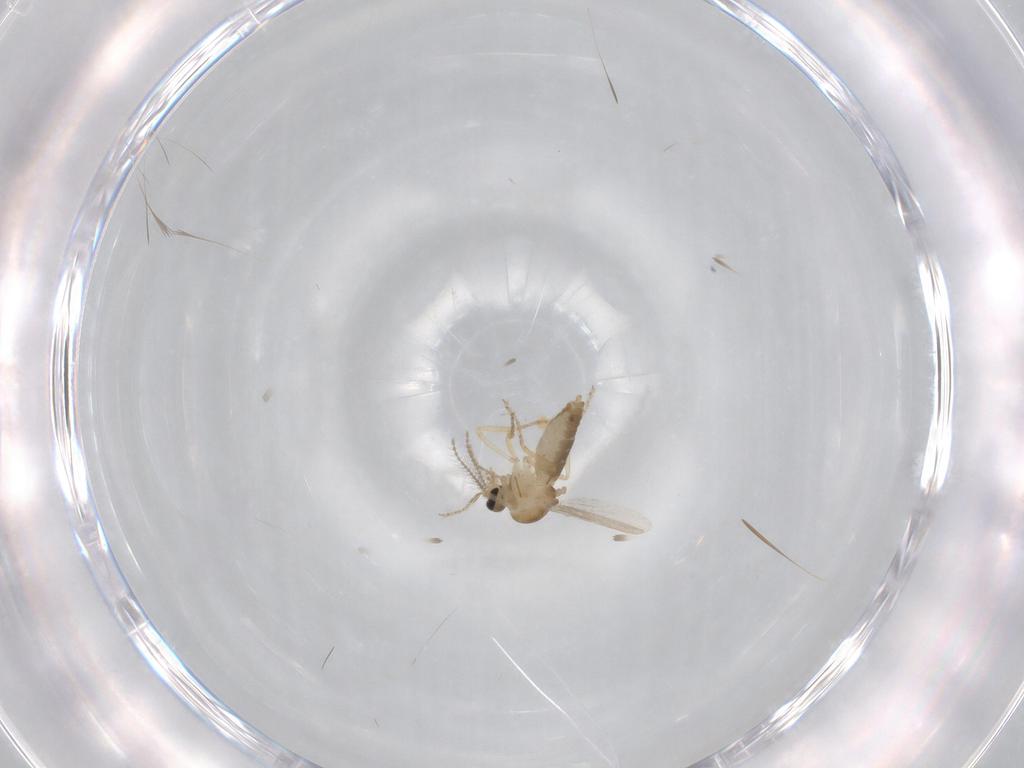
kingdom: Animalia
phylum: Arthropoda
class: Insecta
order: Diptera
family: Ceratopogonidae
